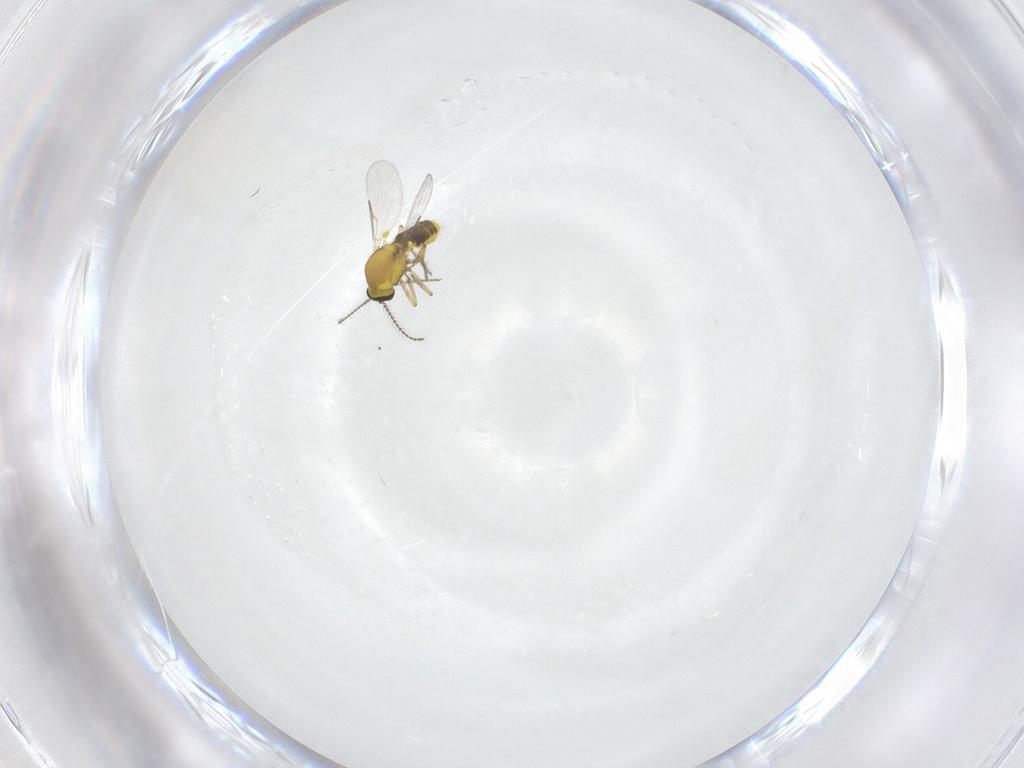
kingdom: Animalia
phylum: Arthropoda
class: Insecta
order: Diptera
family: Ceratopogonidae
